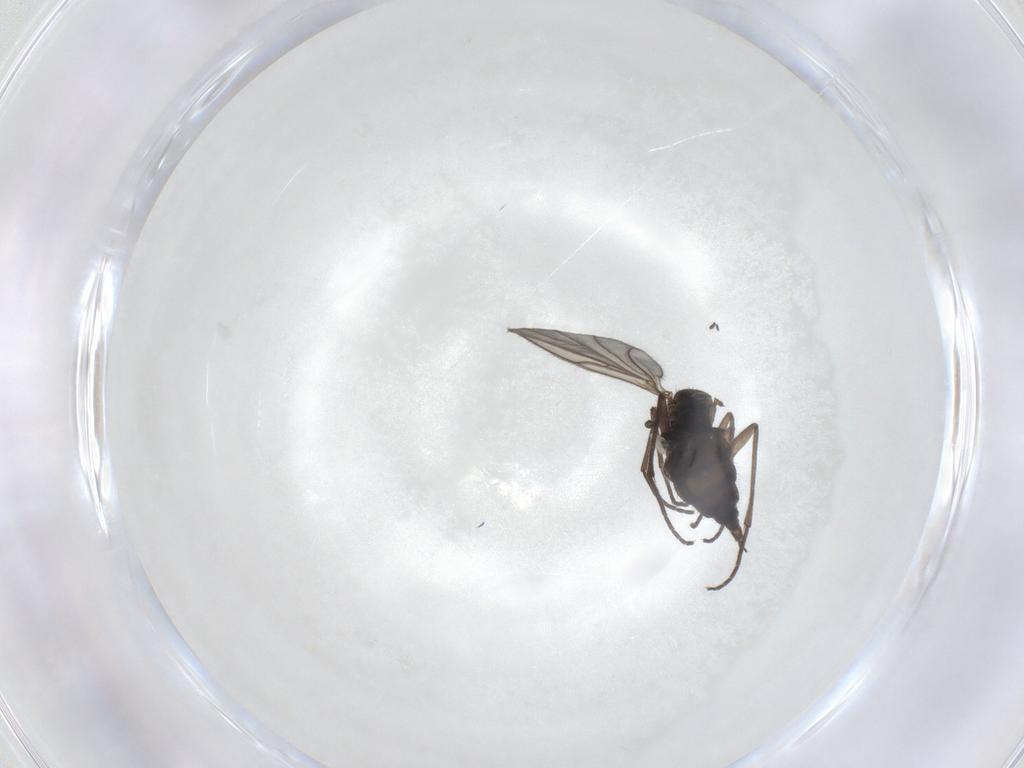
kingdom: Animalia
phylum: Arthropoda
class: Insecta
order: Diptera
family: Sciaridae
